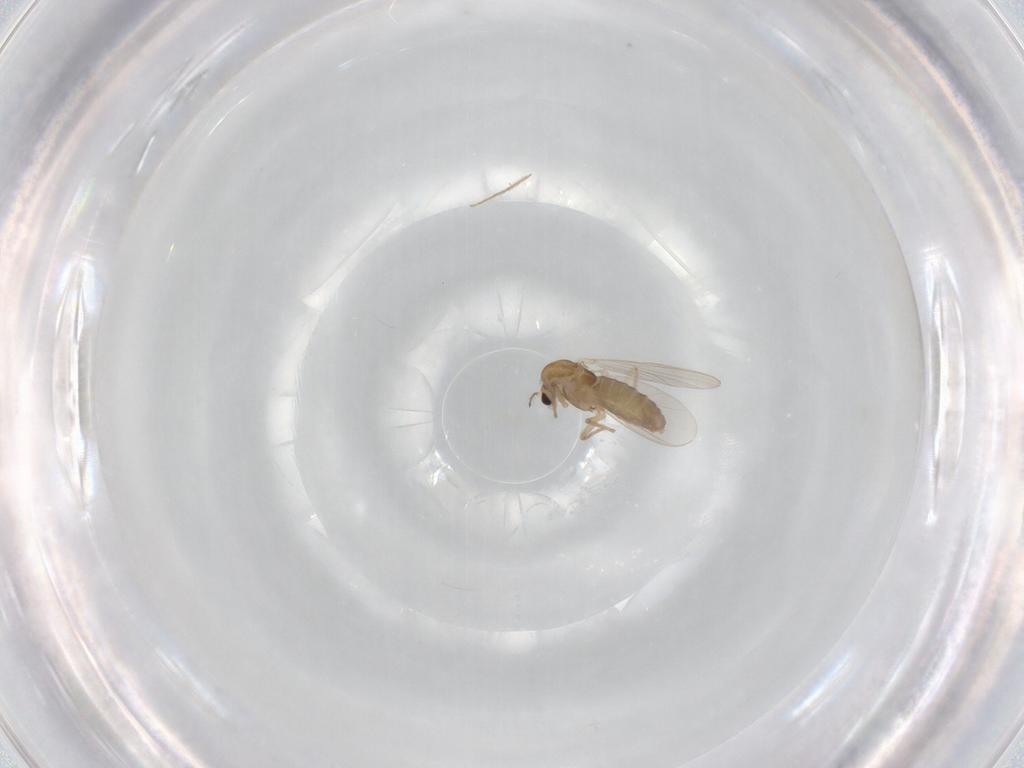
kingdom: Animalia
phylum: Arthropoda
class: Insecta
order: Diptera
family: Chironomidae
